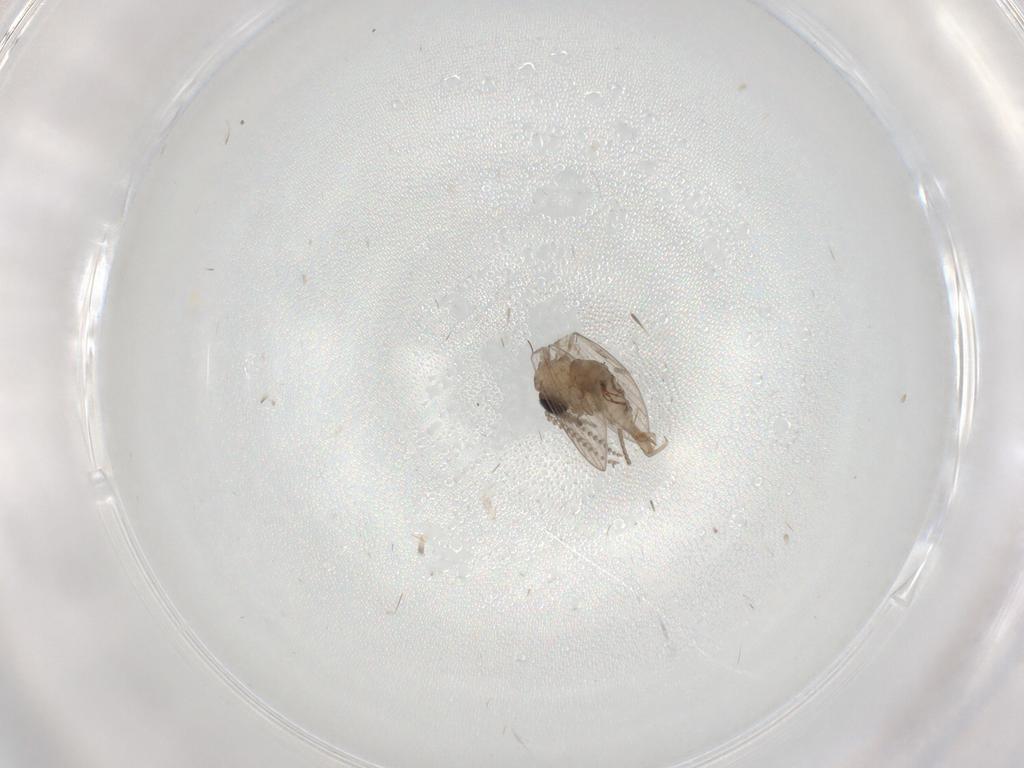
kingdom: Animalia
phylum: Arthropoda
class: Insecta
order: Diptera
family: Psychodidae
